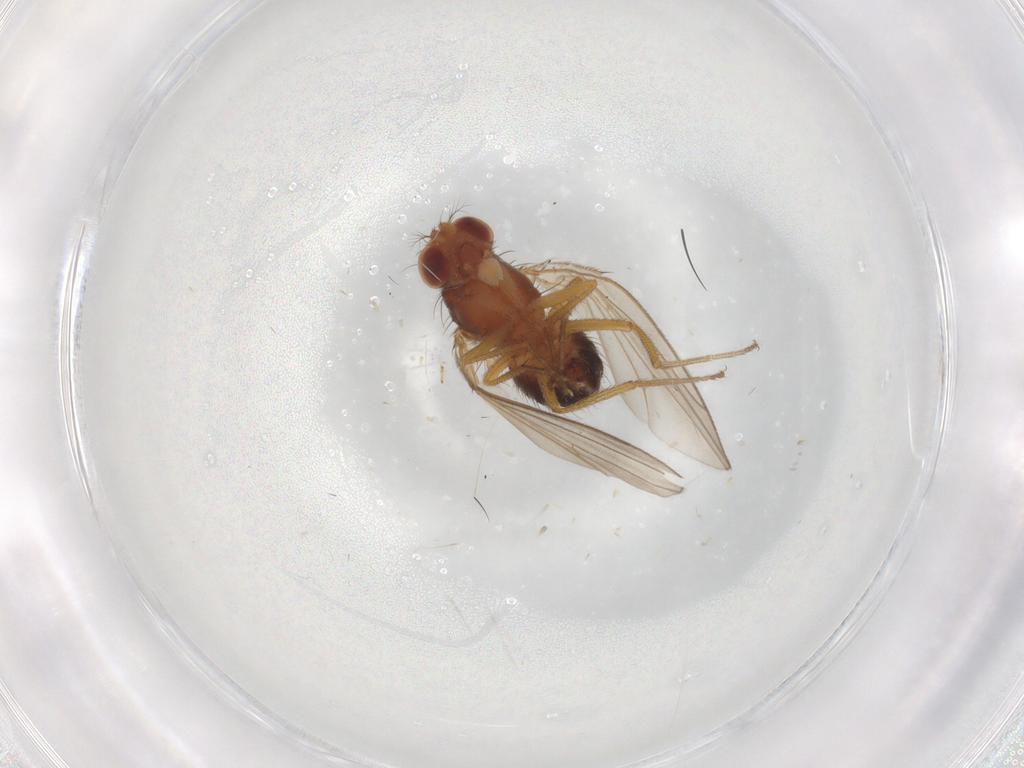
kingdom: Animalia
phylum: Arthropoda
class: Insecta
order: Diptera
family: Drosophilidae
